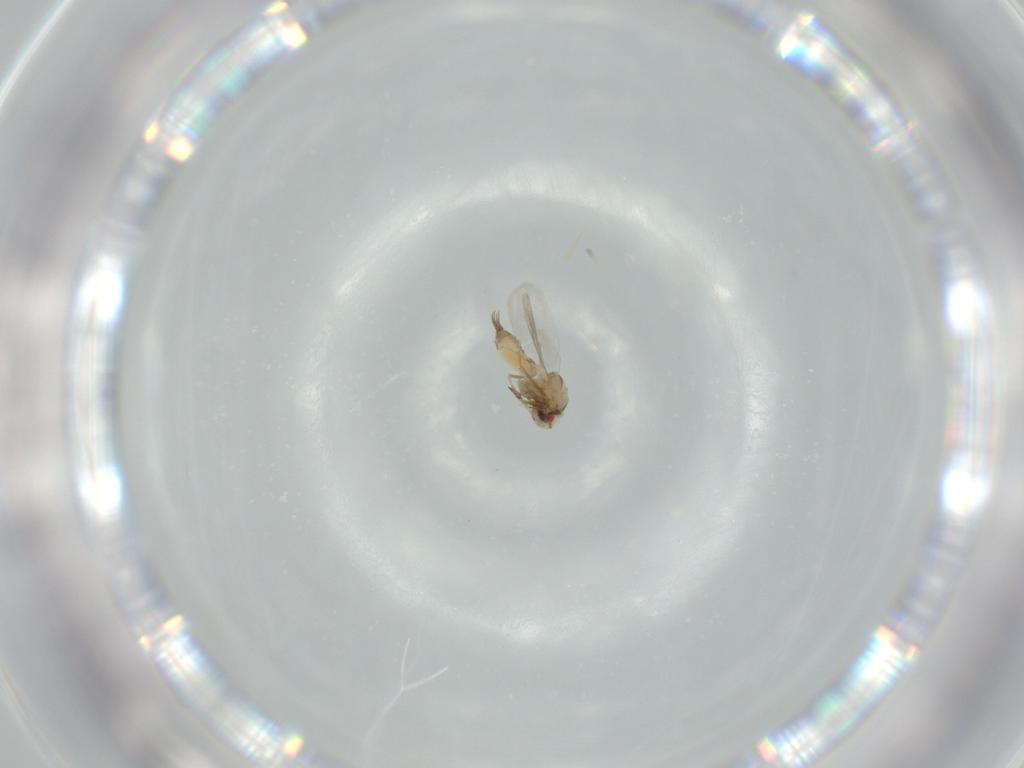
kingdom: Animalia
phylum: Arthropoda
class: Insecta
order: Hemiptera
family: Aleyrodidae
